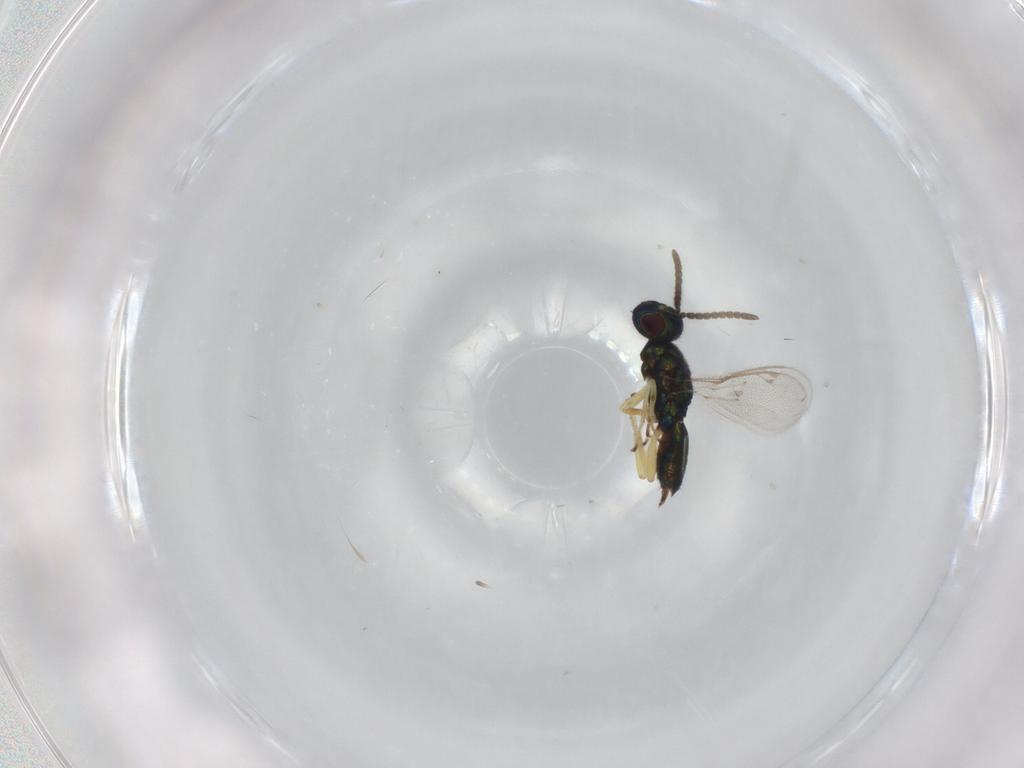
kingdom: Animalia
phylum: Arthropoda
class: Insecta
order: Hymenoptera
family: Eupelmidae
